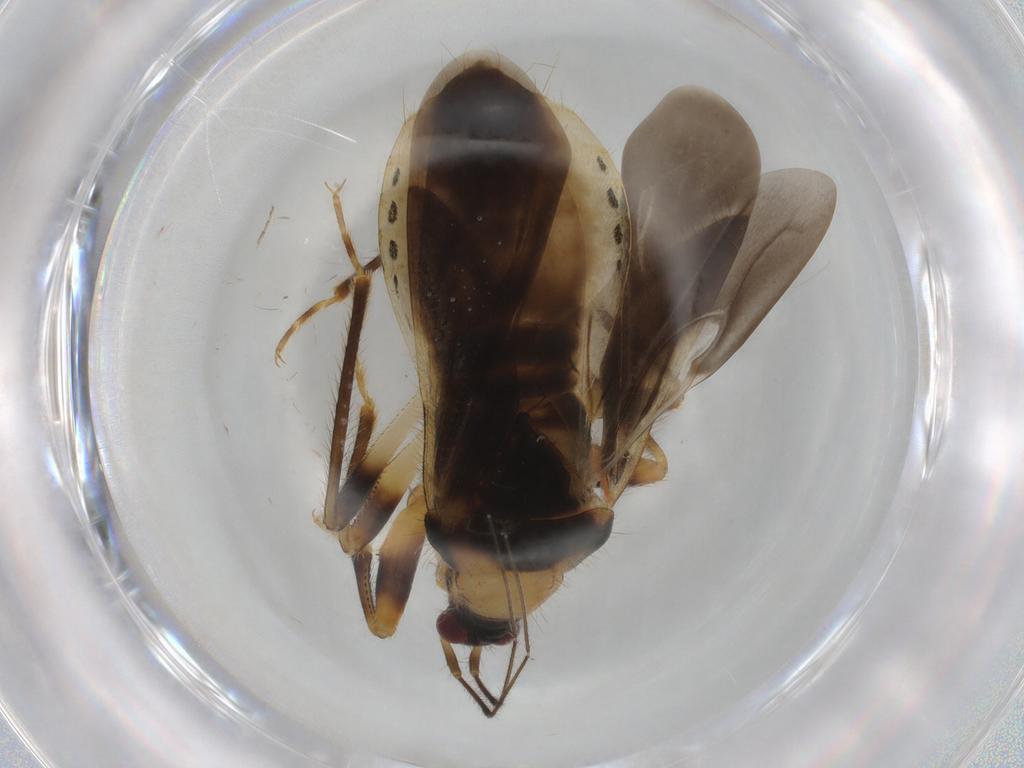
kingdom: Animalia
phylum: Arthropoda
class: Insecta
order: Hemiptera
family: Nabidae
